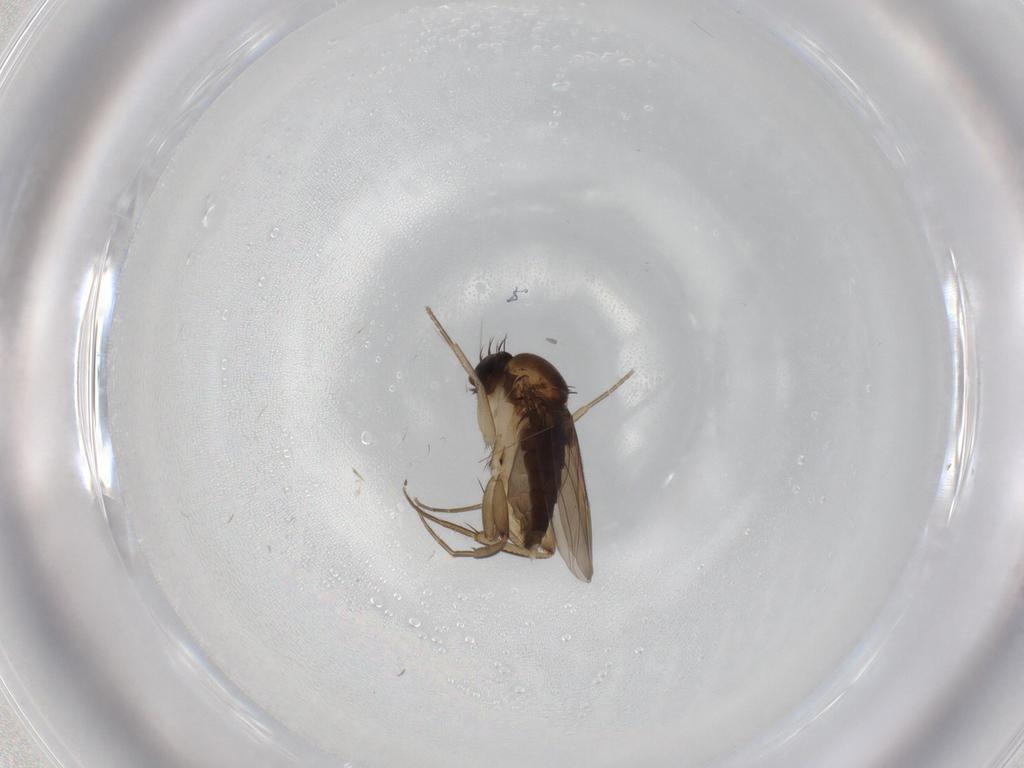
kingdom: Animalia
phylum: Arthropoda
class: Insecta
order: Diptera
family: Phoridae
